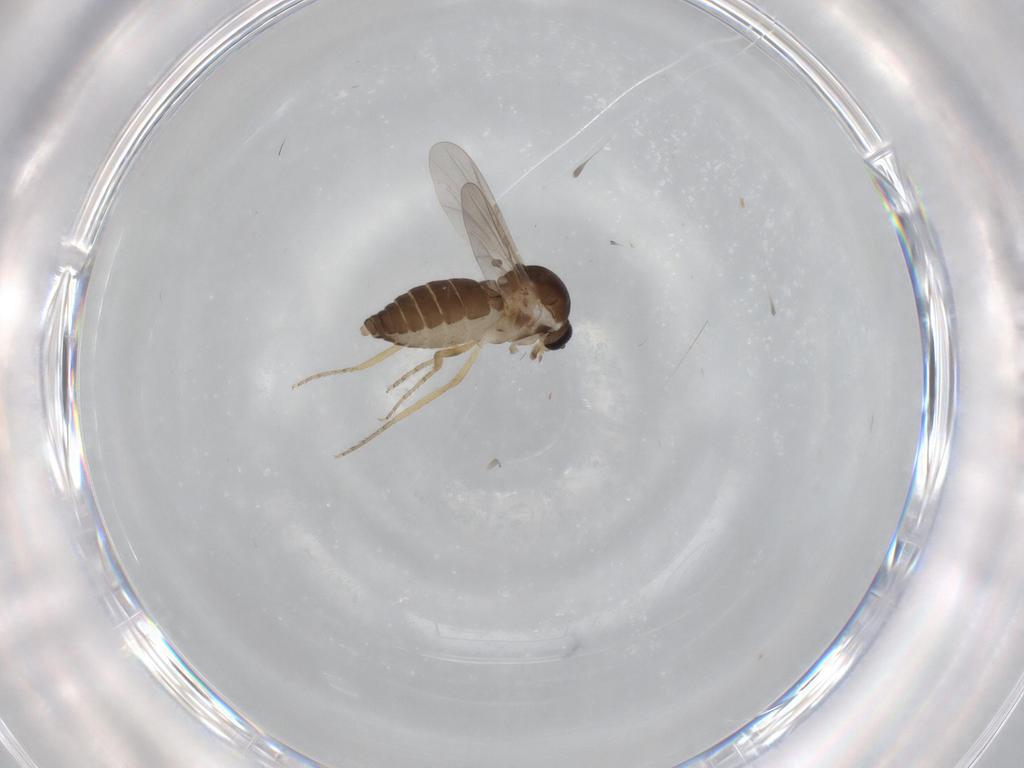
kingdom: Animalia
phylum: Arthropoda
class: Insecta
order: Diptera
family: Ceratopogonidae
